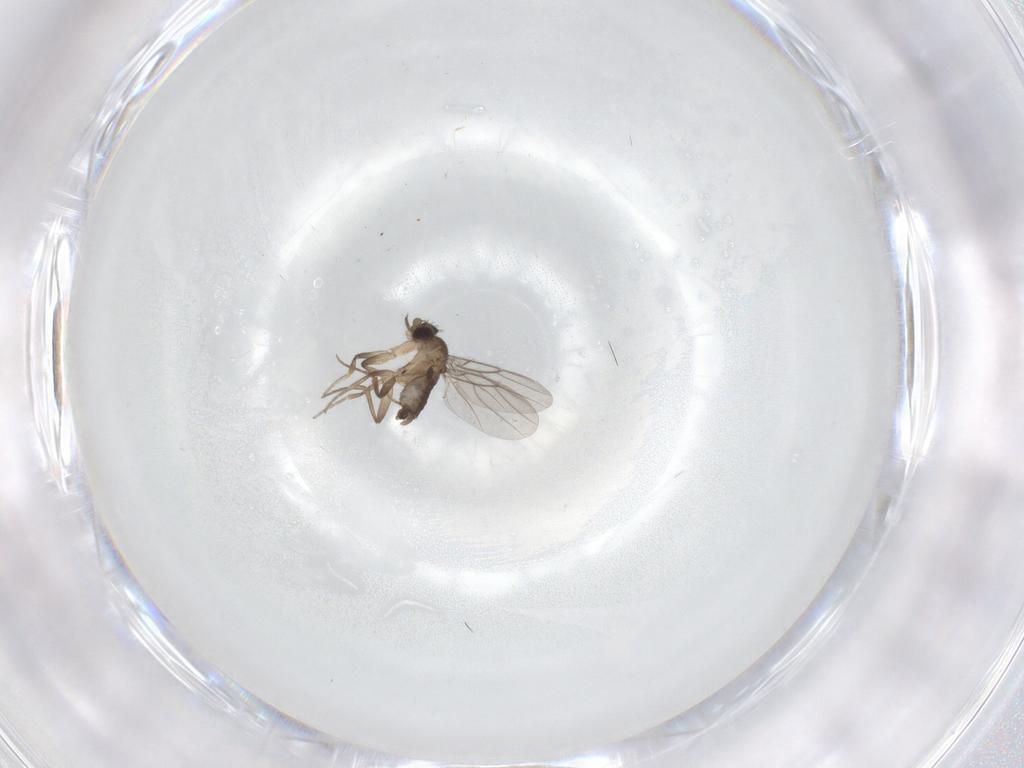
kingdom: Animalia
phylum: Arthropoda
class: Insecta
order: Diptera
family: Phoridae
